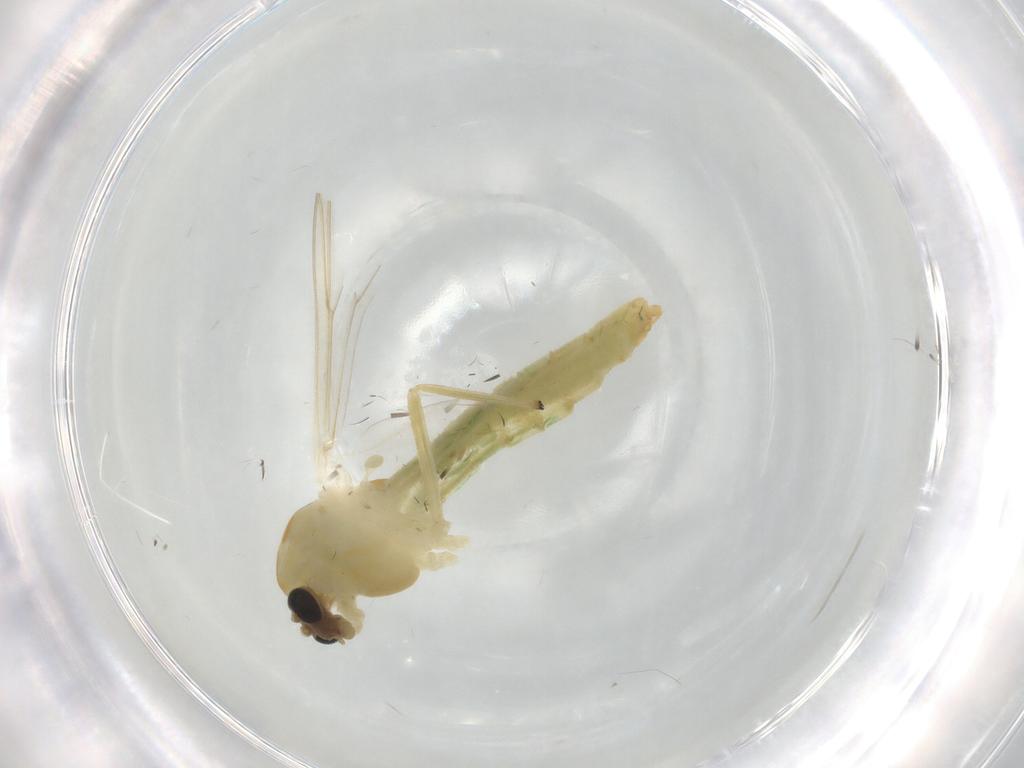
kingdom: Animalia
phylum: Arthropoda
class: Insecta
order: Diptera
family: Chironomidae
